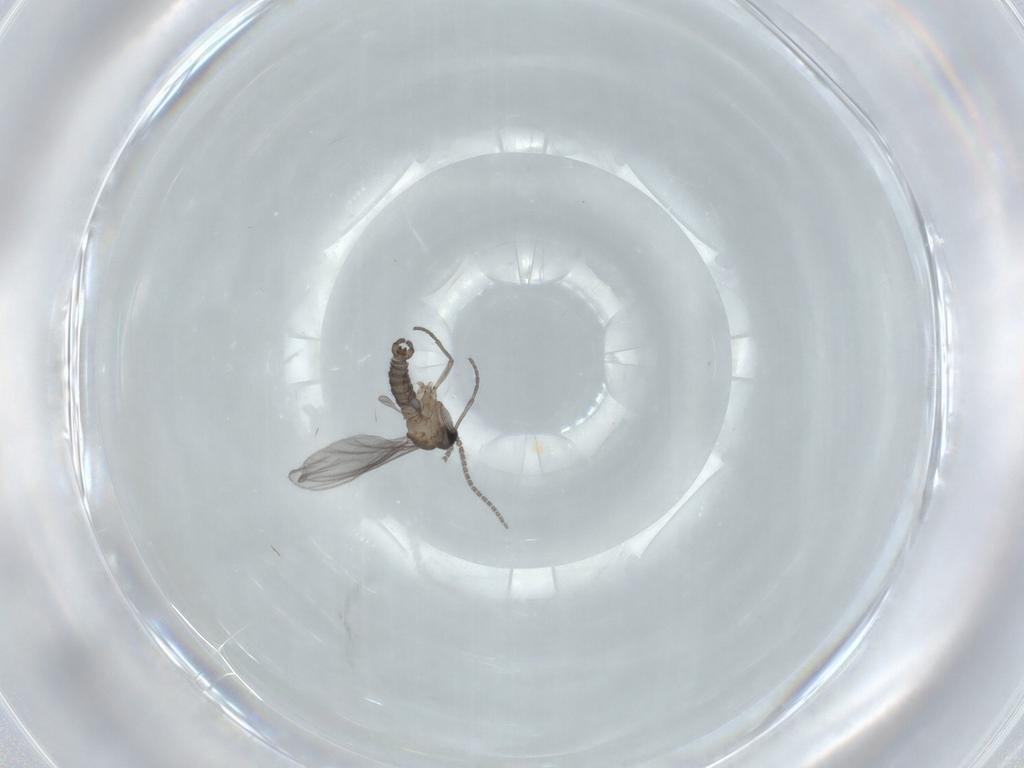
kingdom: Animalia
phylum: Arthropoda
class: Insecta
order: Diptera
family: Sciaridae
